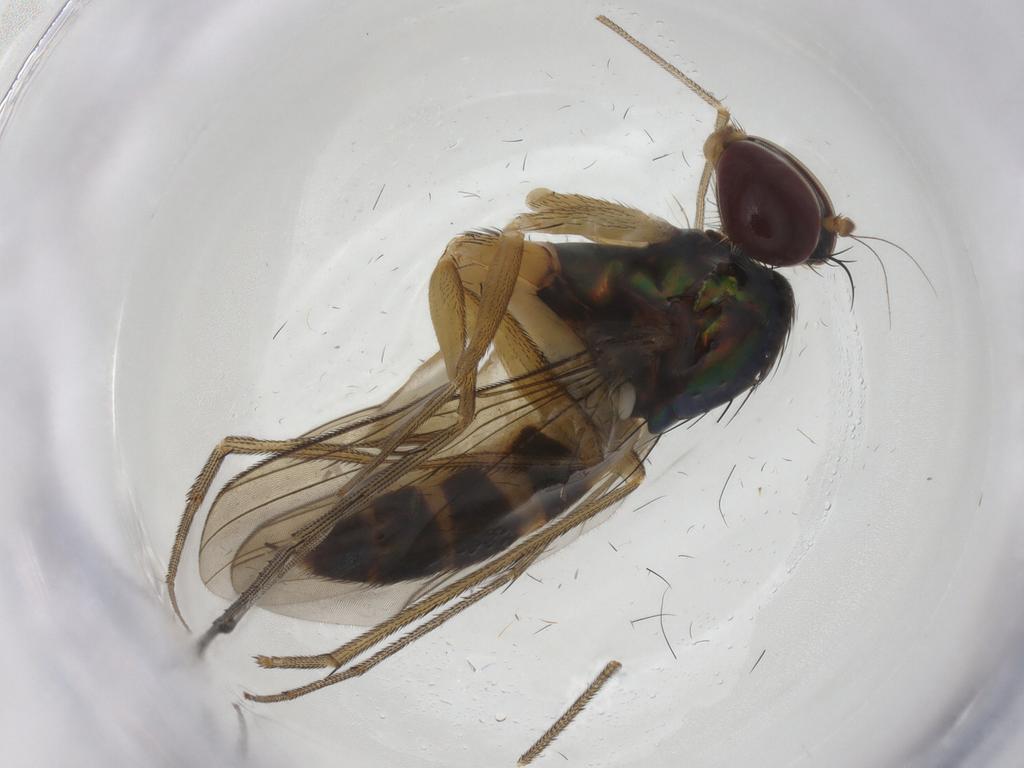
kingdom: Animalia
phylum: Arthropoda
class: Insecta
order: Diptera
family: Dolichopodidae
